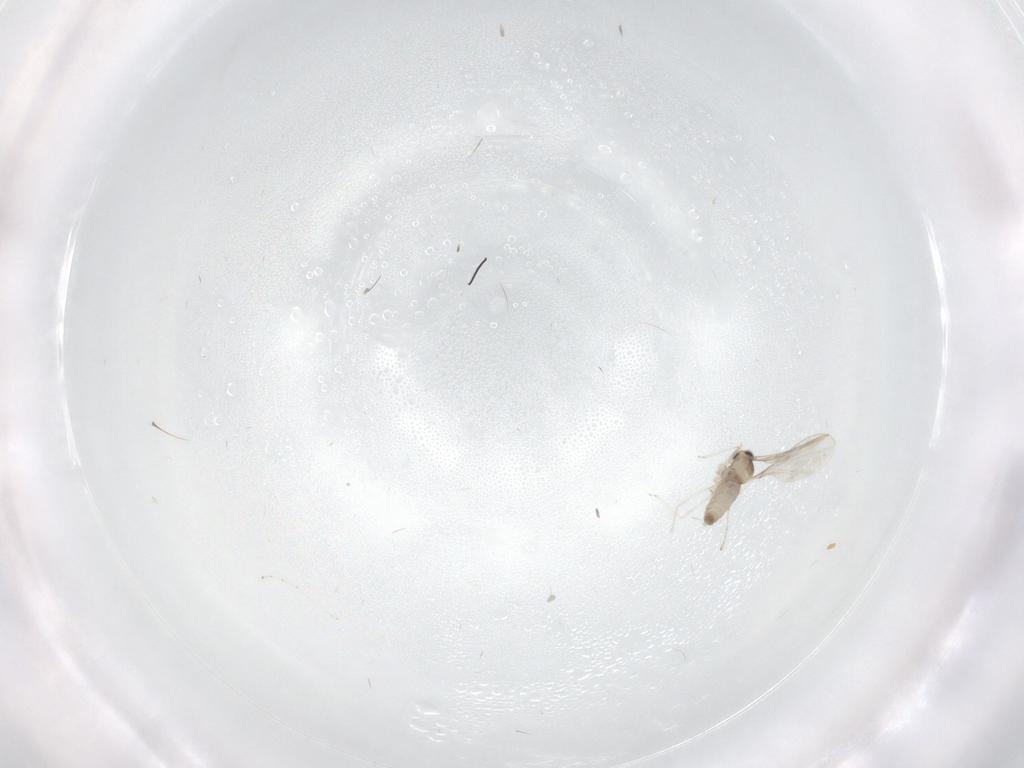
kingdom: Animalia
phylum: Arthropoda
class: Insecta
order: Diptera
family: Cecidomyiidae
